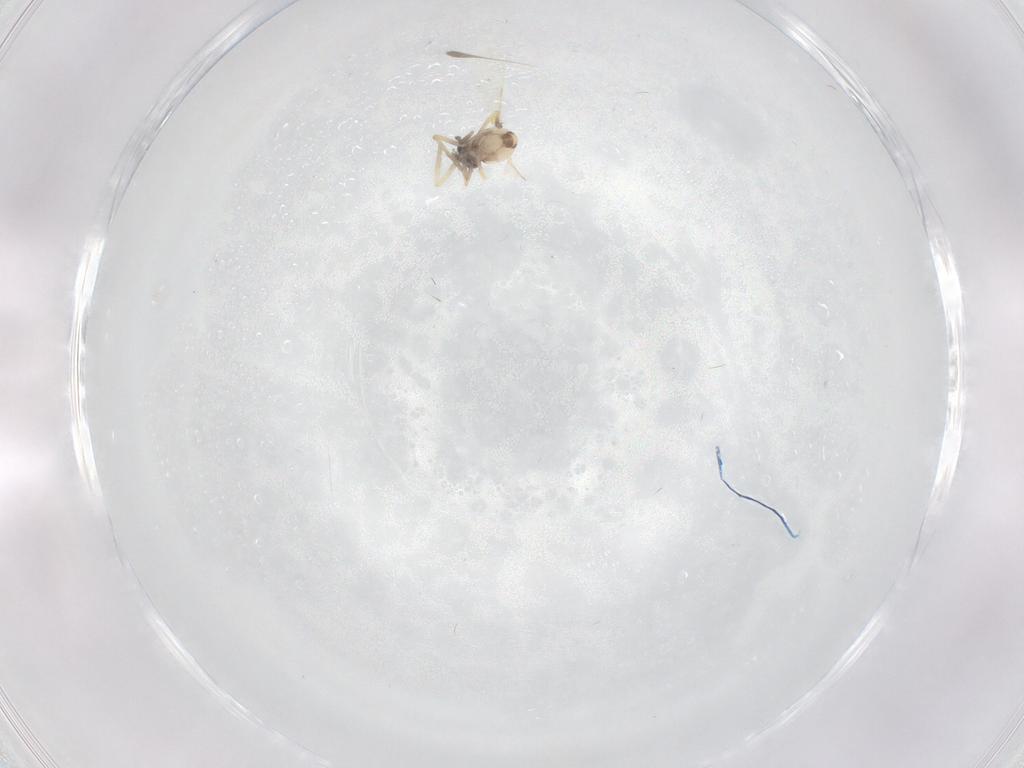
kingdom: Animalia
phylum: Arthropoda
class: Insecta
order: Diptera
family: Ceratopogonidae
